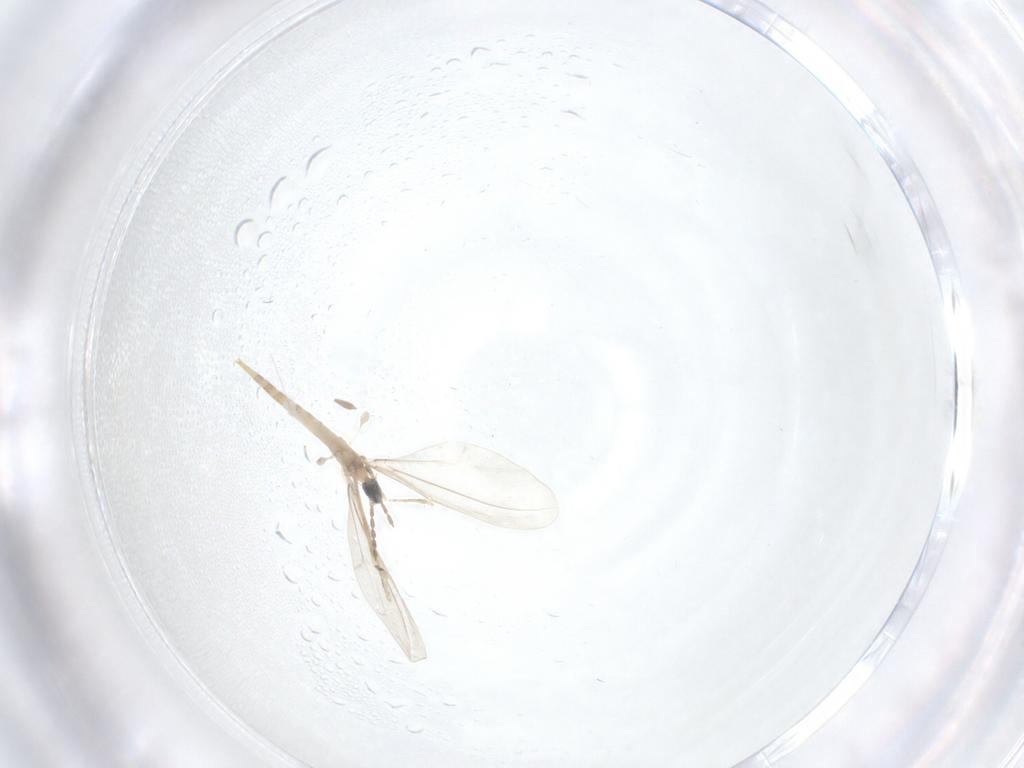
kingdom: Animalia
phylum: Arthropoda
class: Insecta
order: Diptera
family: Cecidomyiidae
